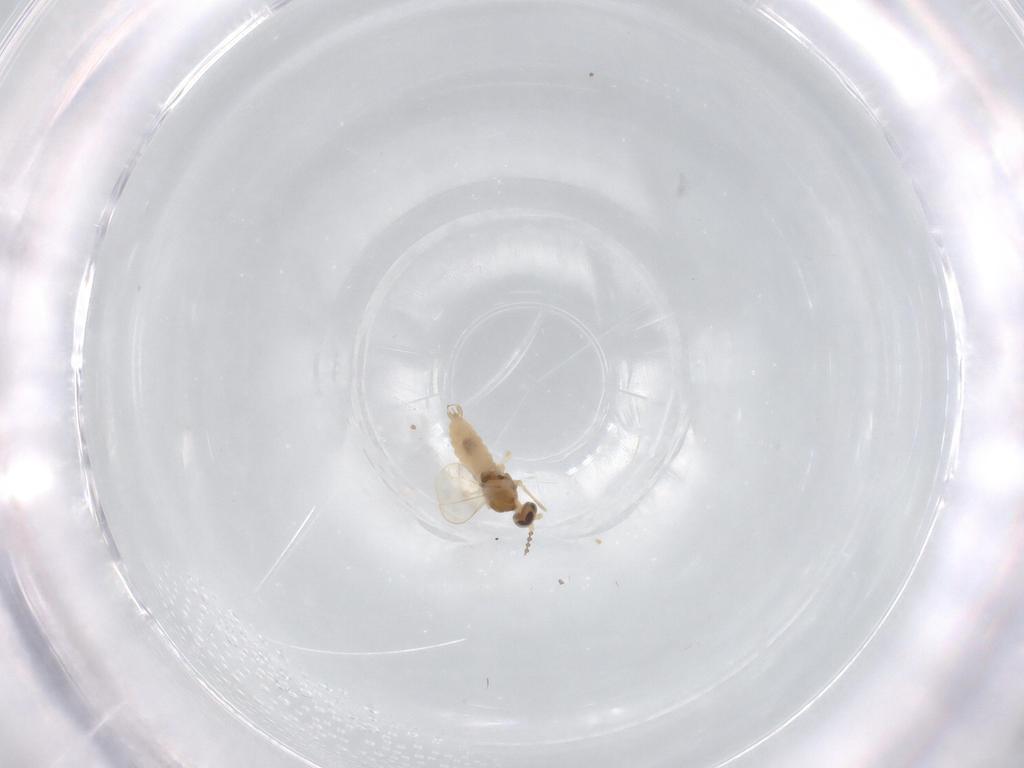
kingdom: Animalia
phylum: Arthropoda
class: Insecta
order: Diptera
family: Cecidomyiidae
